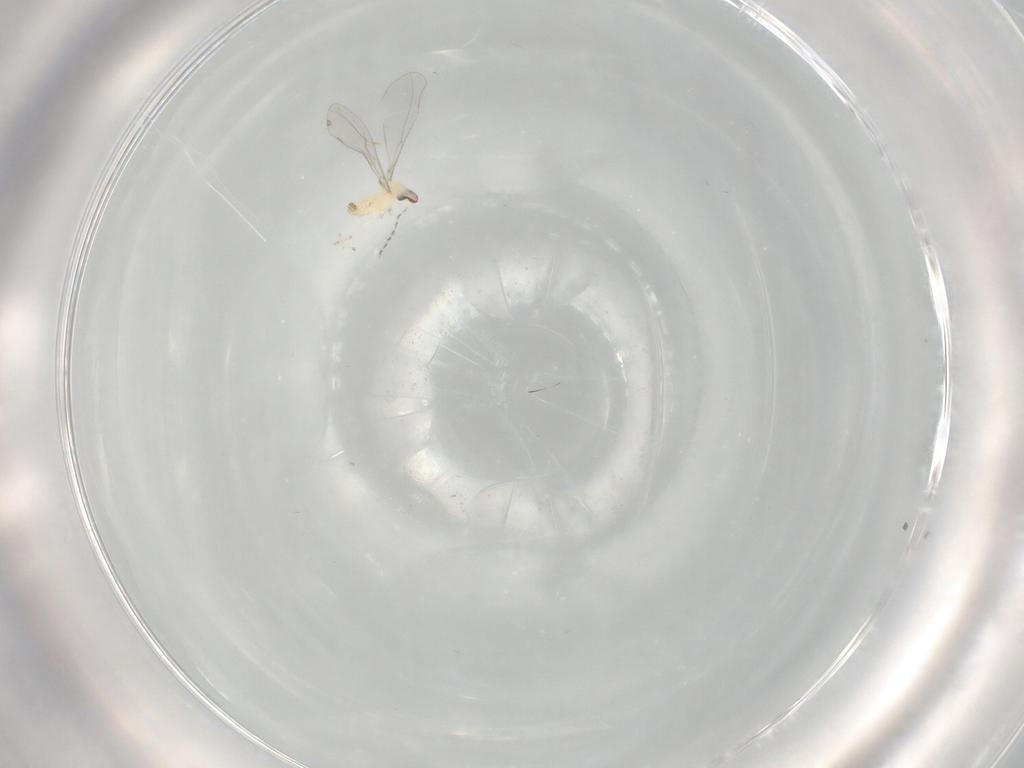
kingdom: Animalia
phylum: Arthropoda
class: Insecta
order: Diptera
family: Cecidomyiidae
